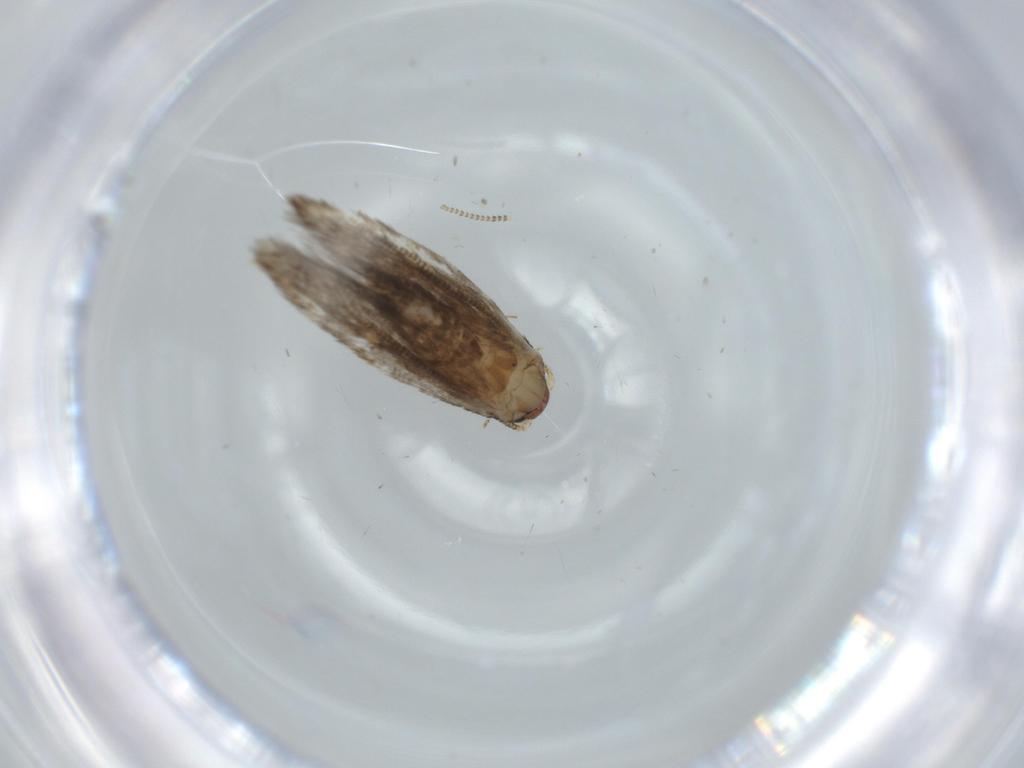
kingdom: Animalia
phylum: Arthropoda
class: Insecta
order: Lepidoptera
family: Tineidae
